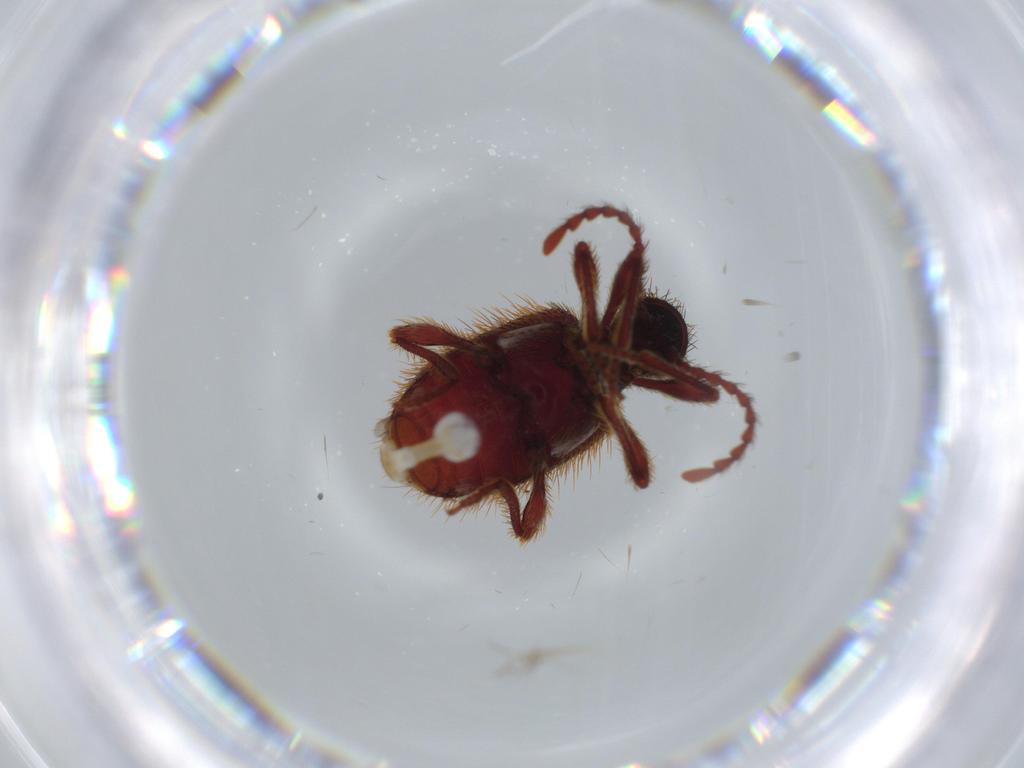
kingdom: Animalia
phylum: Arthropoda
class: Insecta
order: Coleoptera
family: Ptinidae
